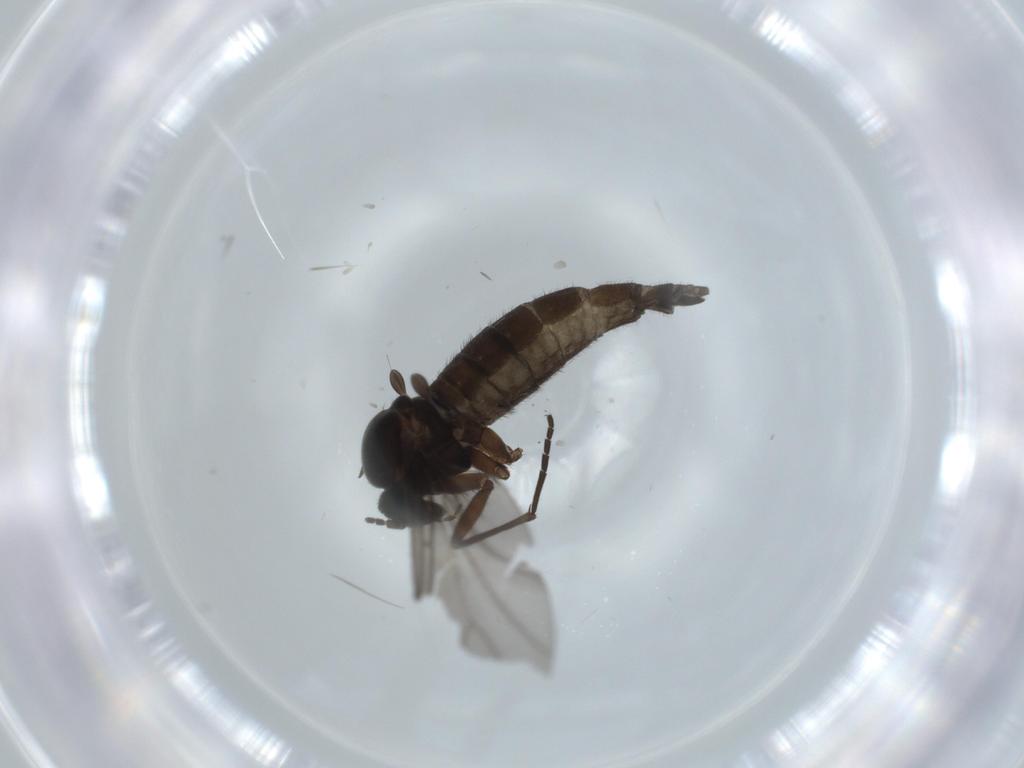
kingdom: Animalia
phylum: Arthropoda
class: Insecta
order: Diptera
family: Sciaridae
